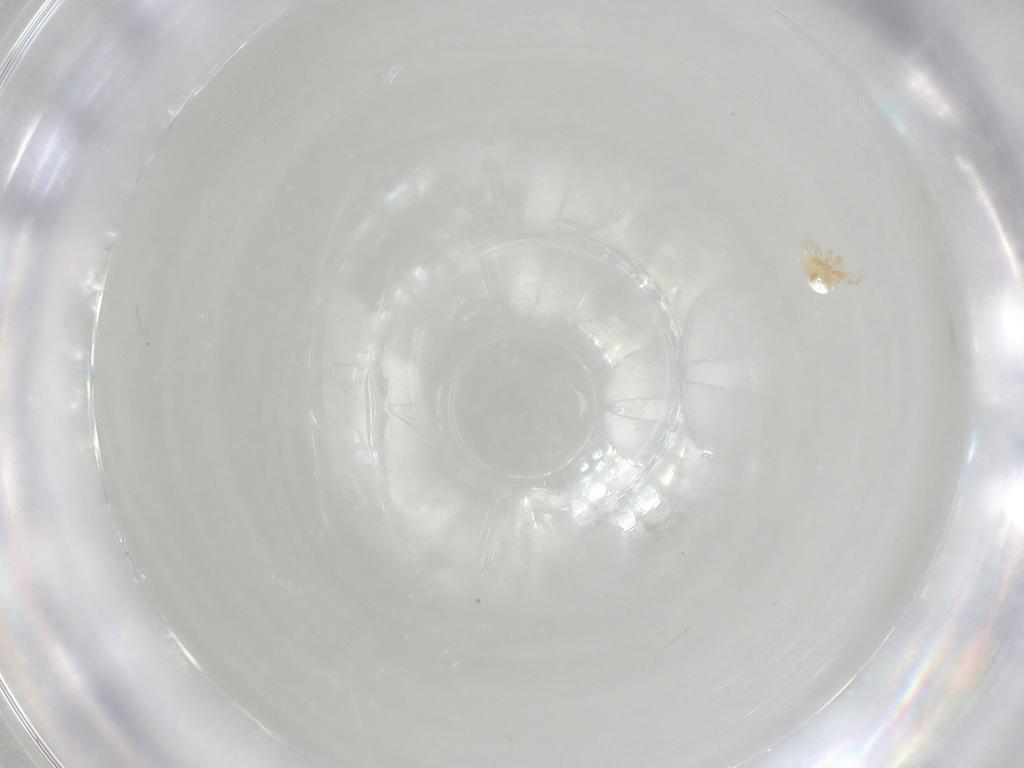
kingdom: Animalia
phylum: Arthropoda
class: Arachnida
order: Trombidiformes
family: Cunaxidae
